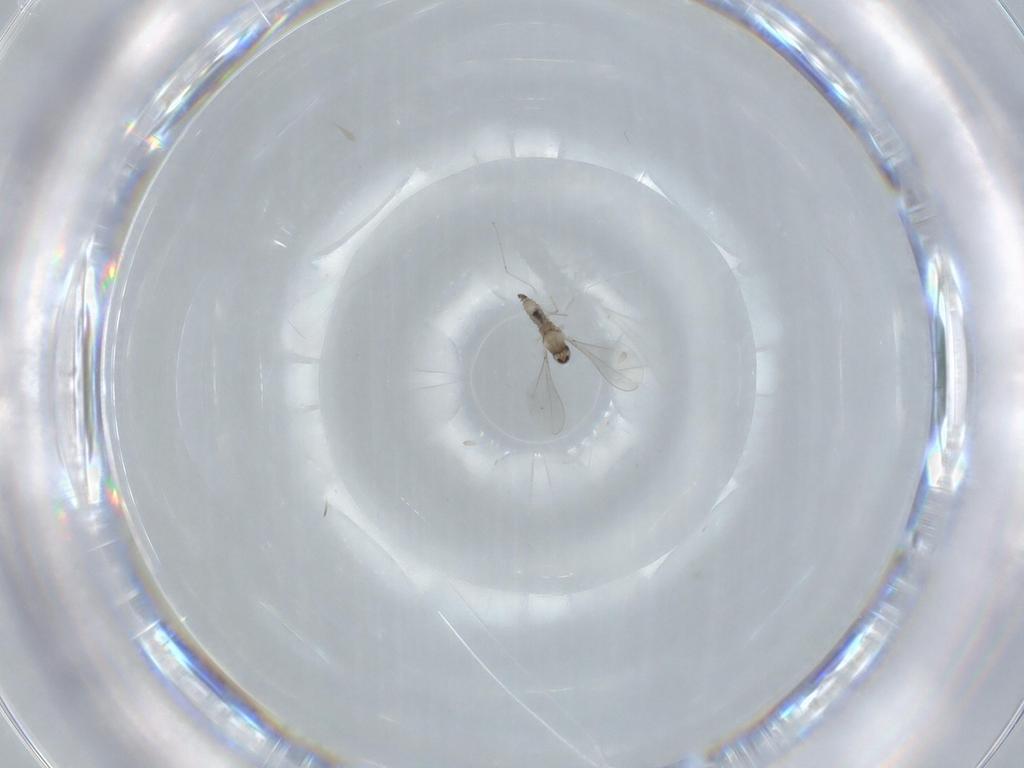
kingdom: Animalia
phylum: Arthropoda
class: Insecta
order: Diptera
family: Cecidomyiidae
